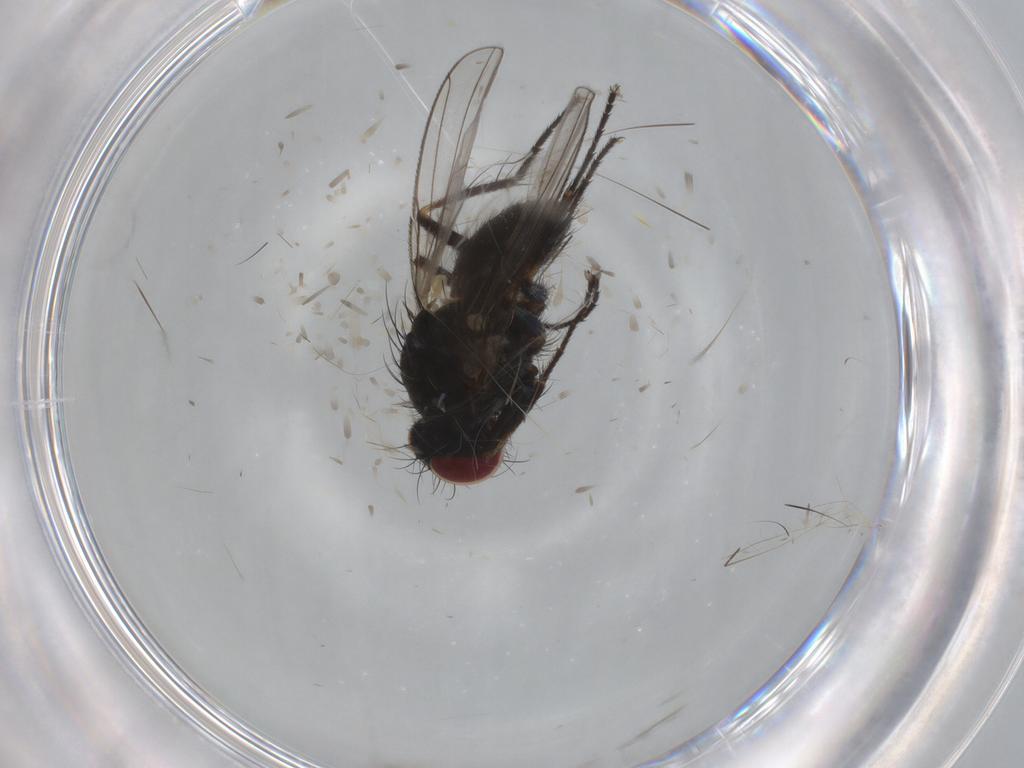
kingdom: Animalia
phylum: Arthropoda
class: Insecta
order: Diptera
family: Muscidae
